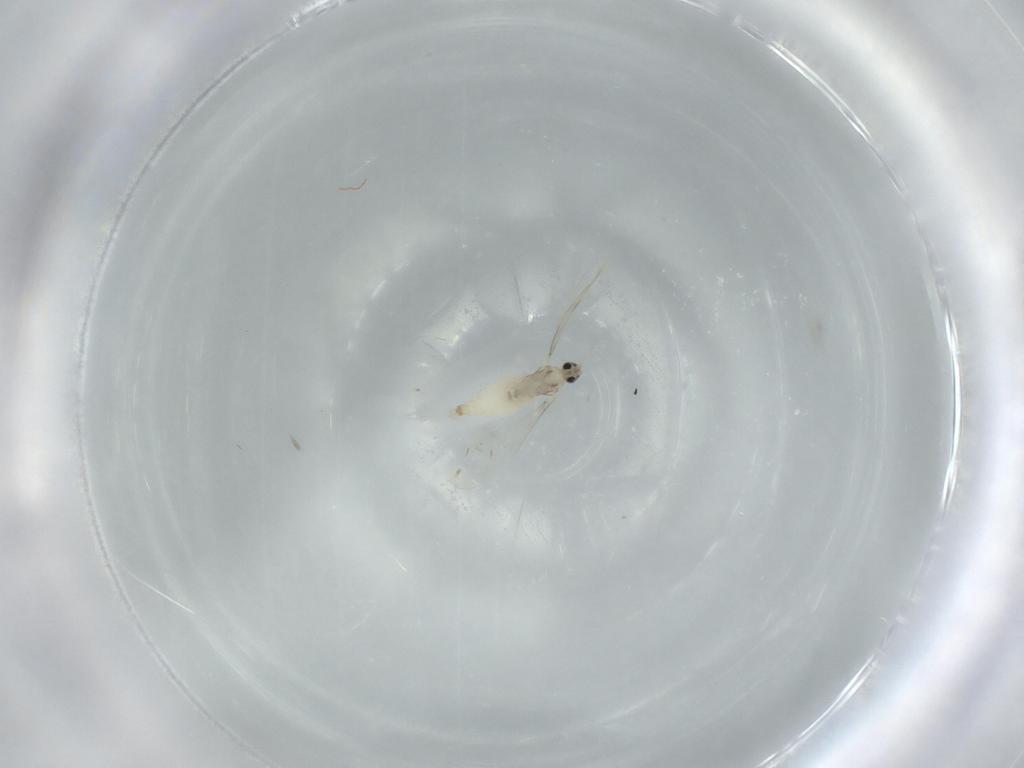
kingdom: Animalia
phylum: Arthropoda
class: Insecta
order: Diptera
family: Cecidomyiidae
